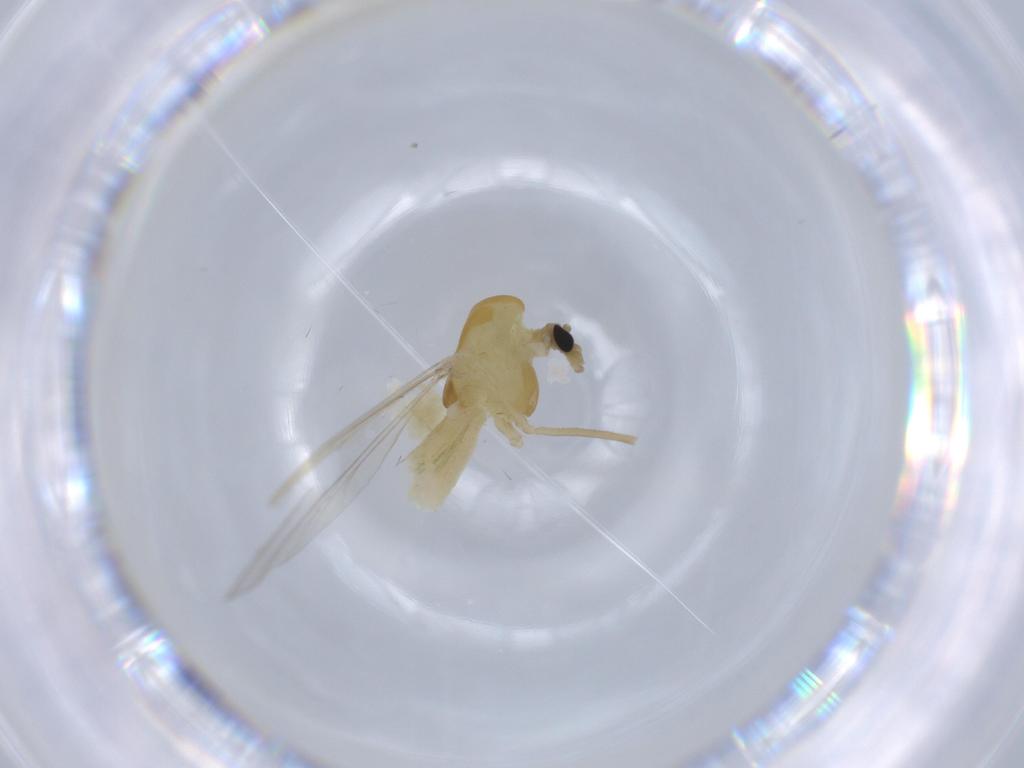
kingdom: Animalia
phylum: Arthropoda
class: Insecta
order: Diptera
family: Chironomidae
